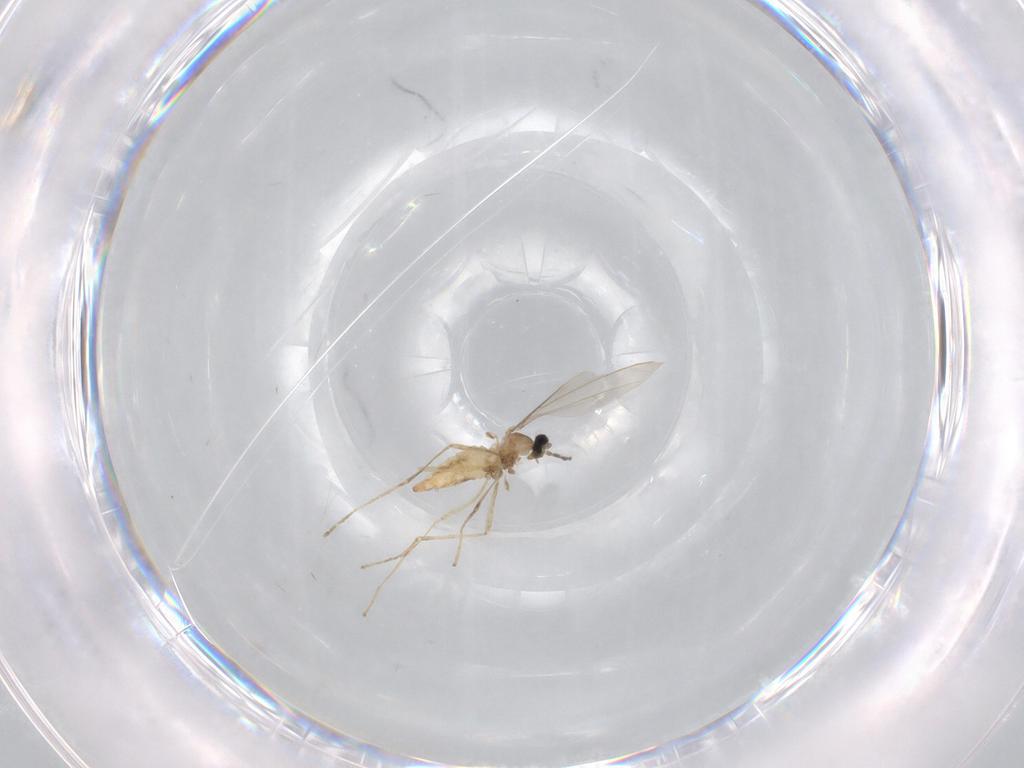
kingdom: Animalia
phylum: Arthropoda
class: Insecta
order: Diptera
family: Cecidomyiidae
